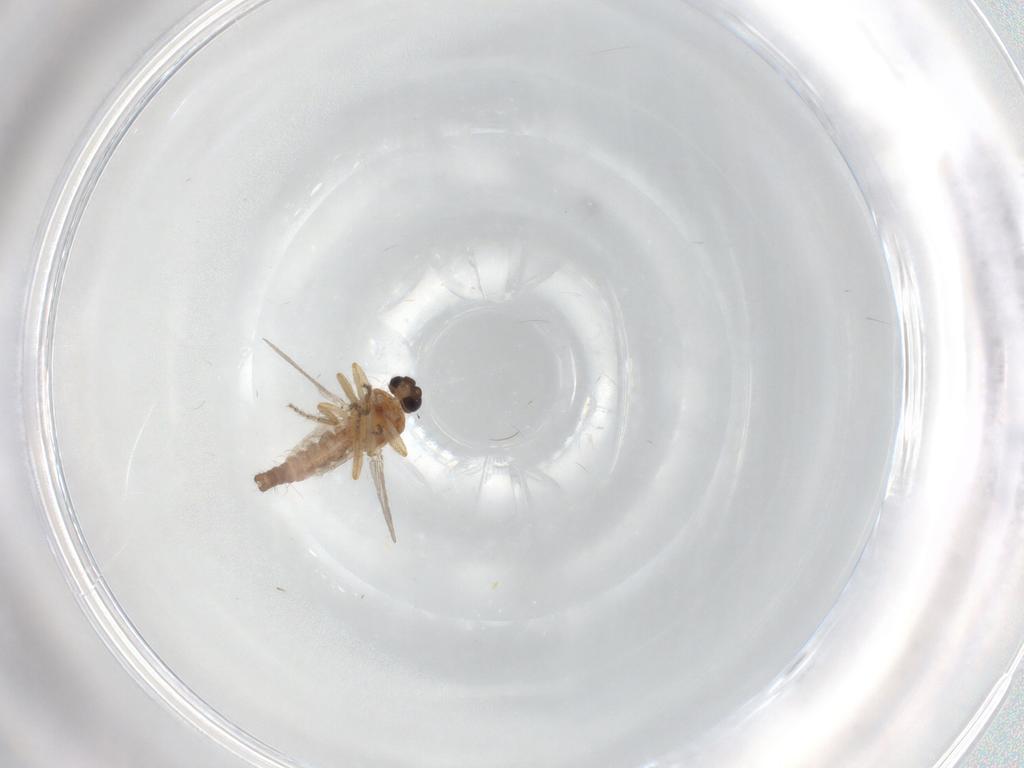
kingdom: Animalia
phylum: Arthropoda
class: Insecta
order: Diptera
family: Ceratopogonidae
